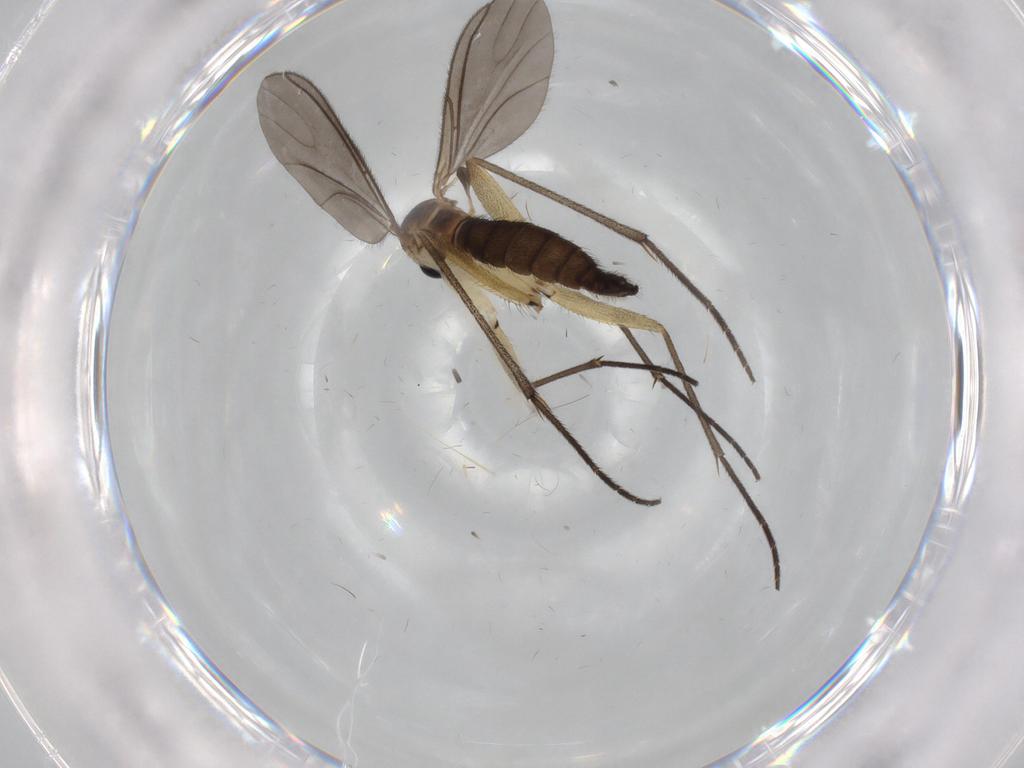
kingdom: Animalia
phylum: Arthropoda
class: Insecta
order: Diptera
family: Sciaridae
